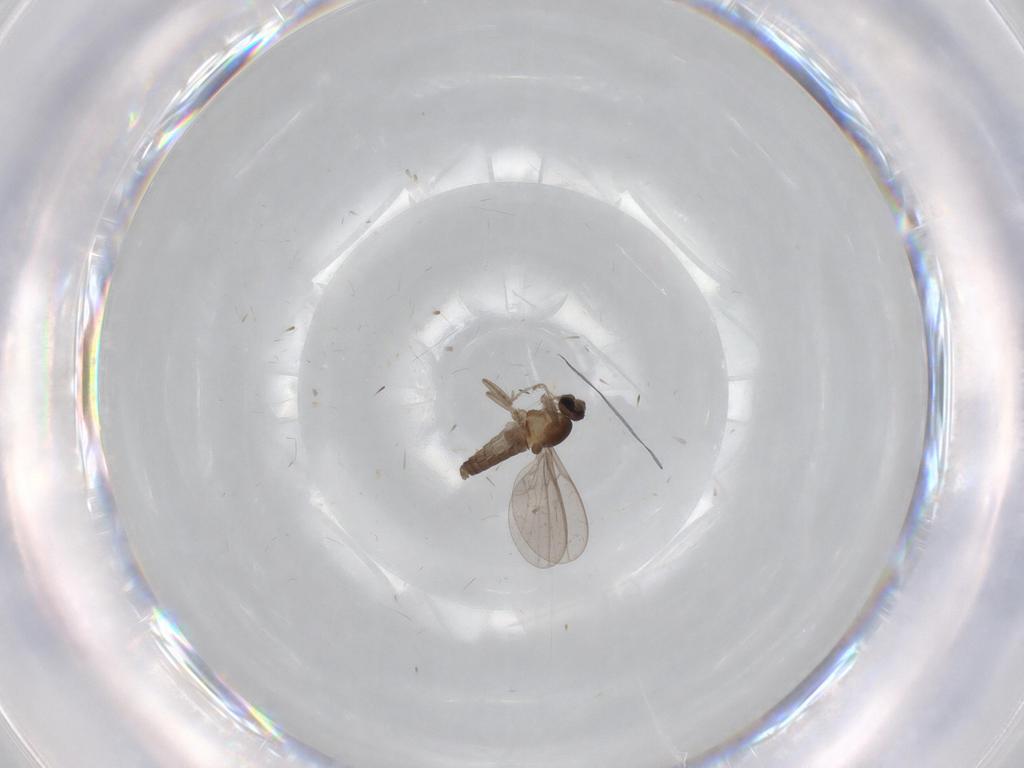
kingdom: Animalia
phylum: Arthropoda
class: Insecta
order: Diptera
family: Cecidomyiidae
